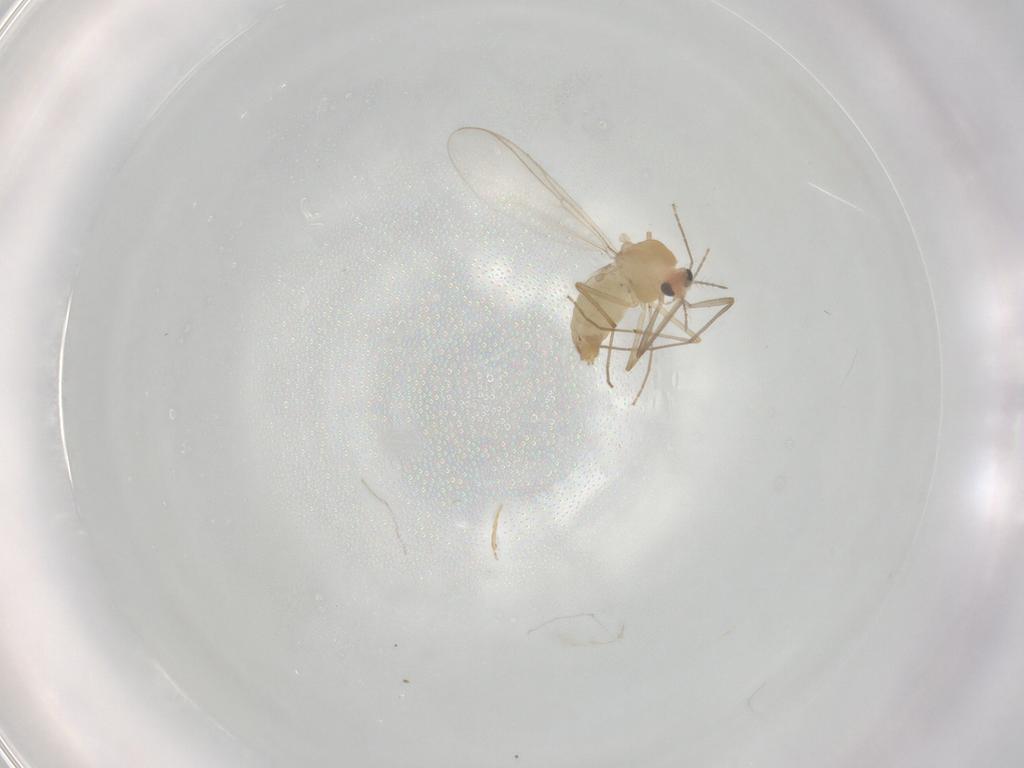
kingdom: Animalia
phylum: Arthropoda
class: Insecta
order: Diptera
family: Chironomidae
